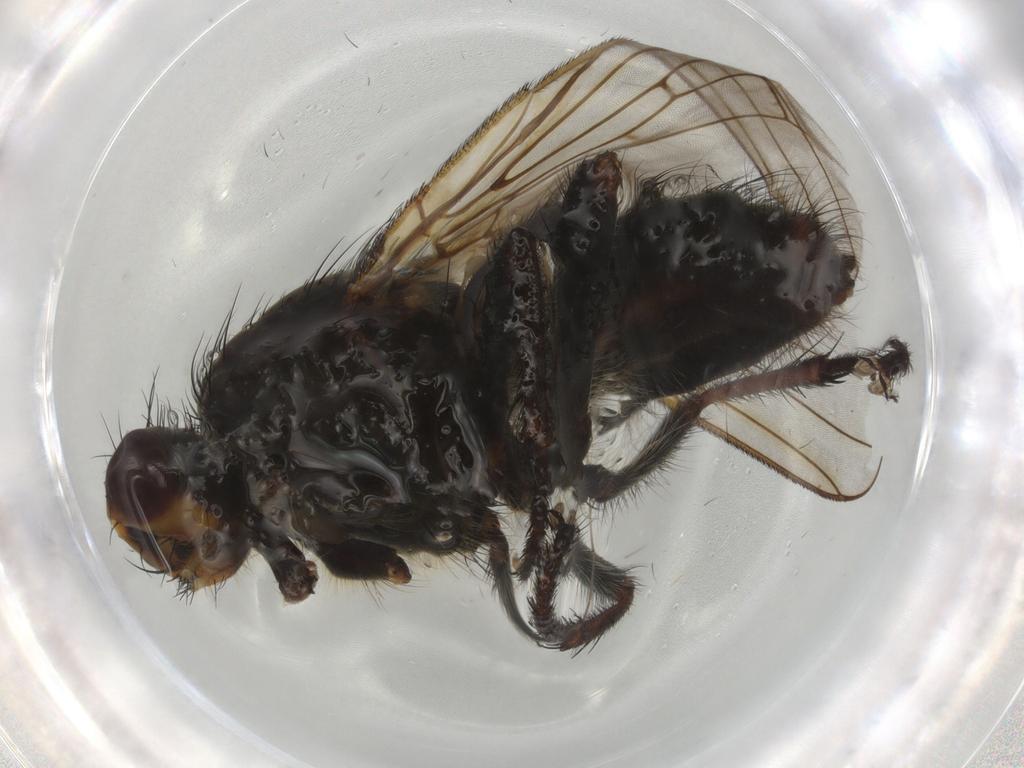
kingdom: Animalia
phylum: Arthropoda
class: Insecta
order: Diptera
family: Scathophagidae
